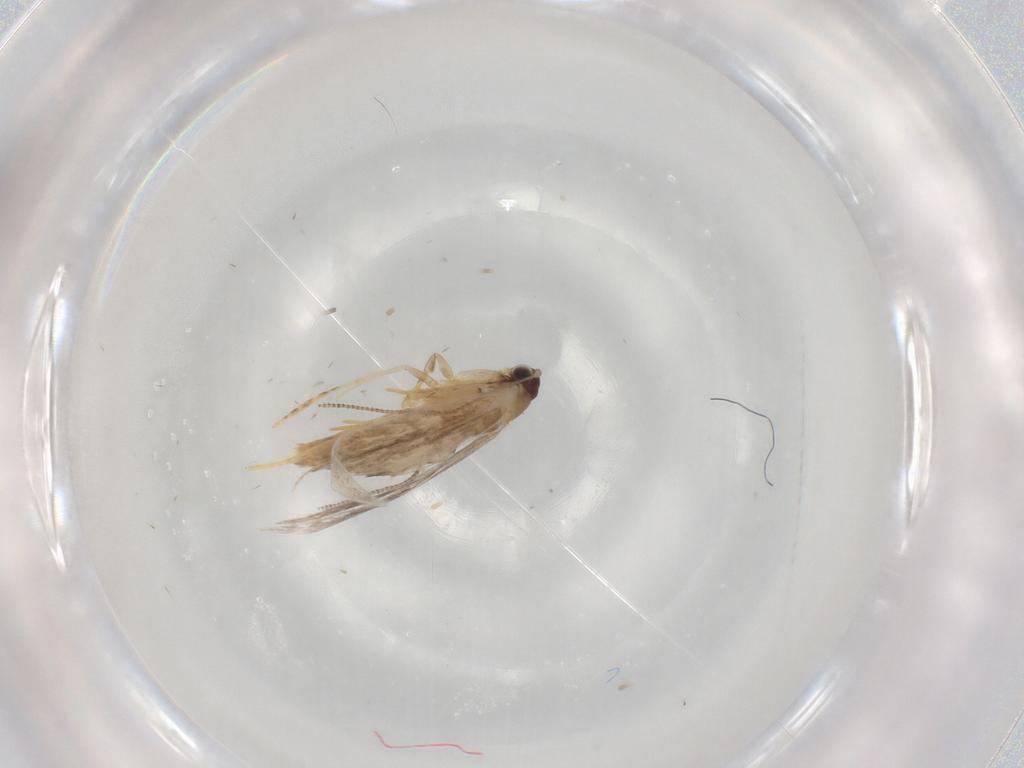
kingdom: Animalia
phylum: Arthropoda
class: Insecta
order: Lepidoptera
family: Tineidae
